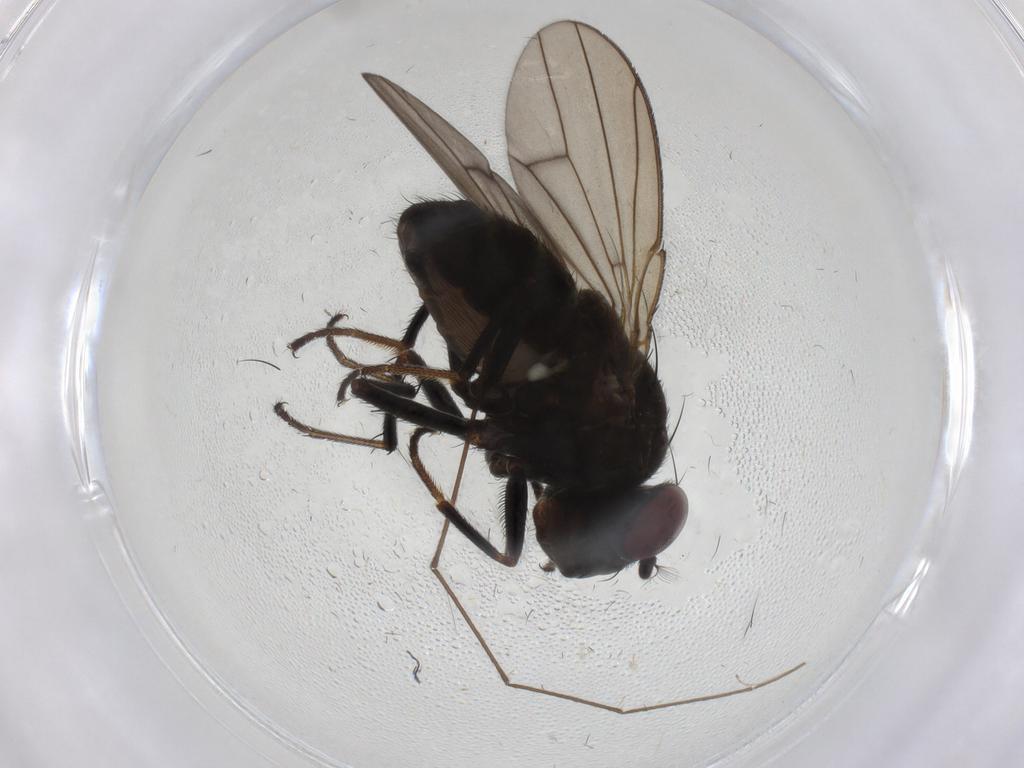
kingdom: Animalia
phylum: Arthropoda
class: Insecta
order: Diptera
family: Ephydridae
